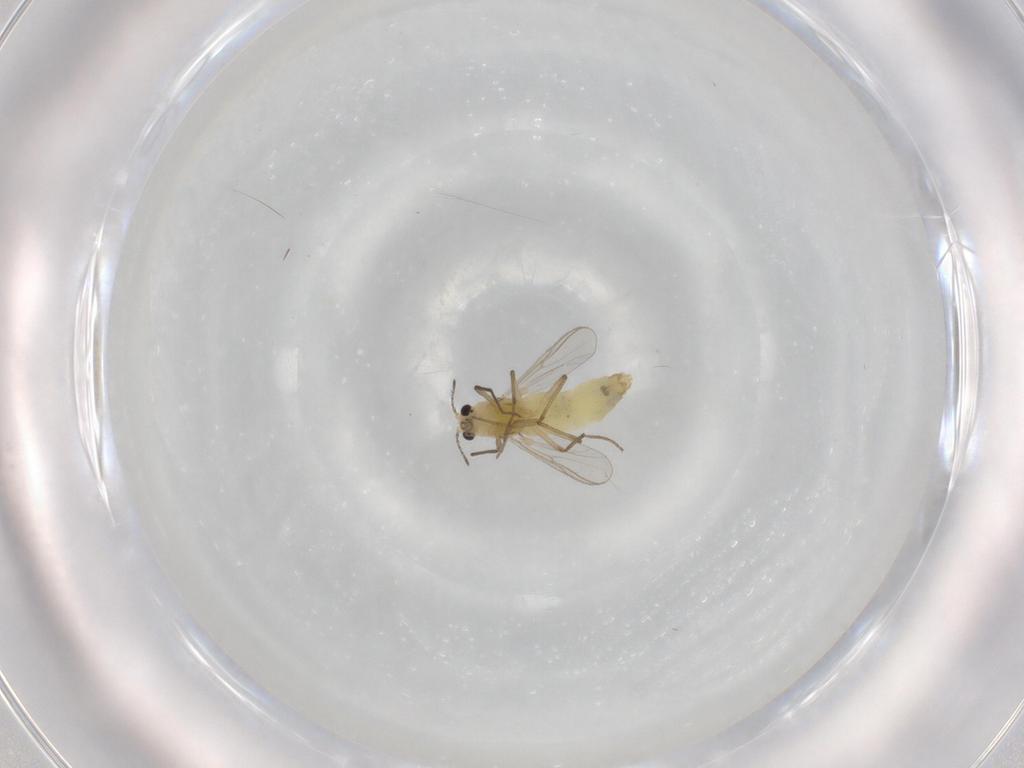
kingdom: Animalia
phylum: Arthropoda
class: Insecta
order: Diptera
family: Chironomidae
